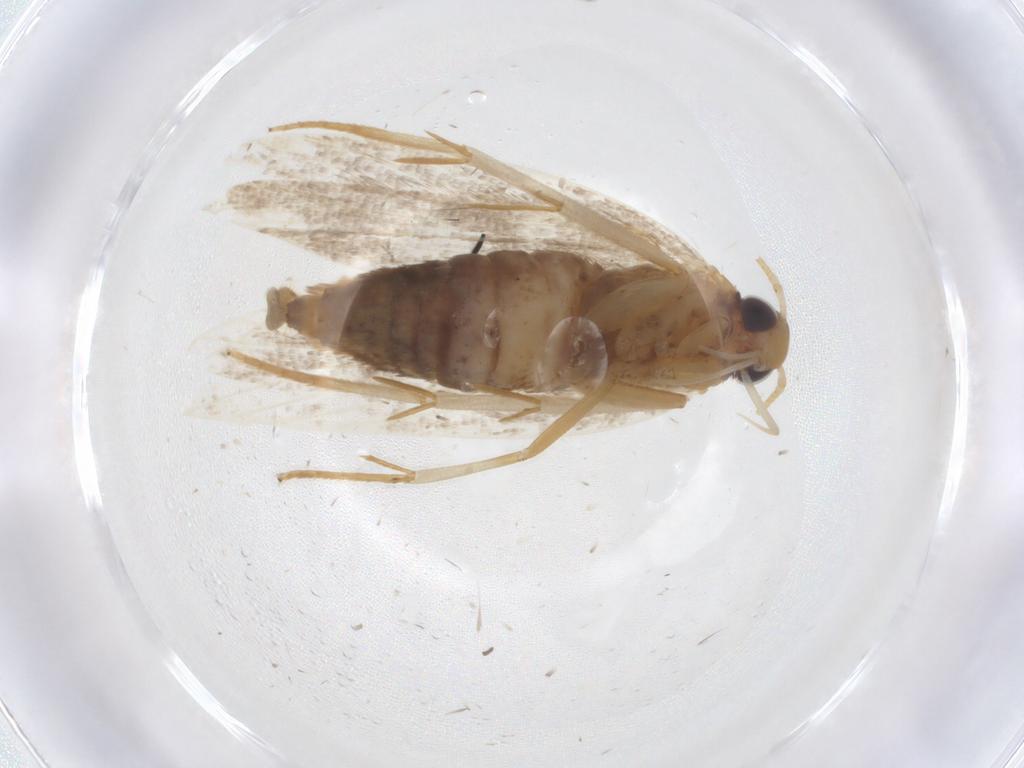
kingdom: Animalia
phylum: Arthropoda
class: Insecta
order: Lepidoptera
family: Oecophoridae
